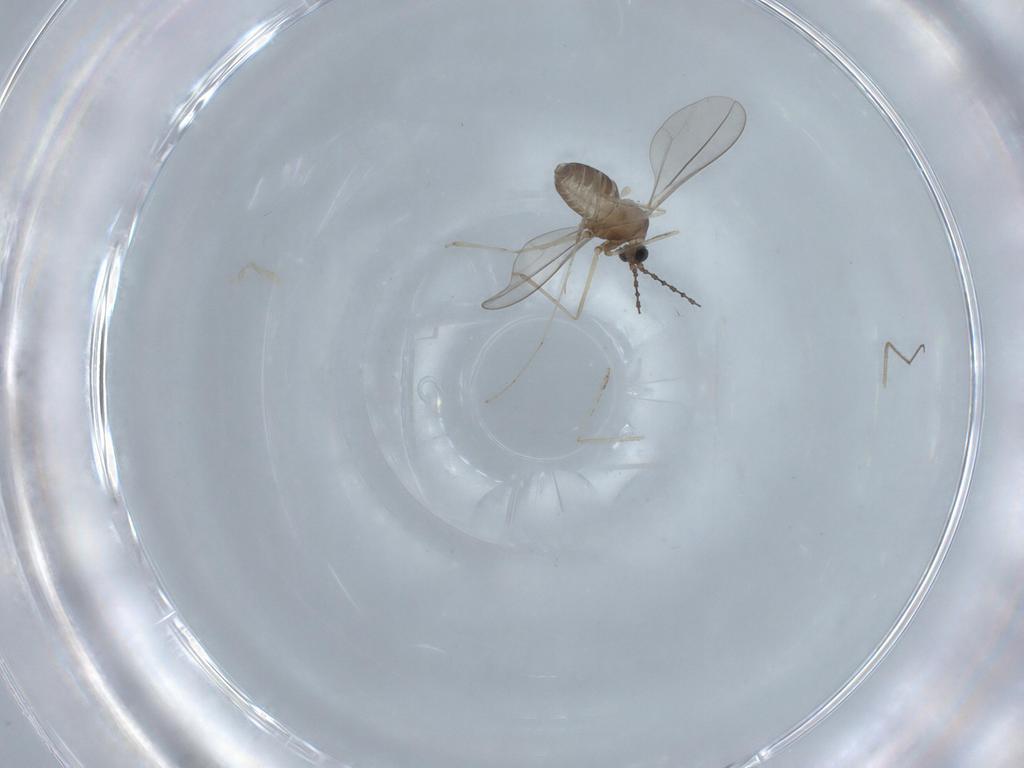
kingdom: Animalia
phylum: Arthropoda
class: Insecta
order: Diptera
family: Cecidomyiidae
